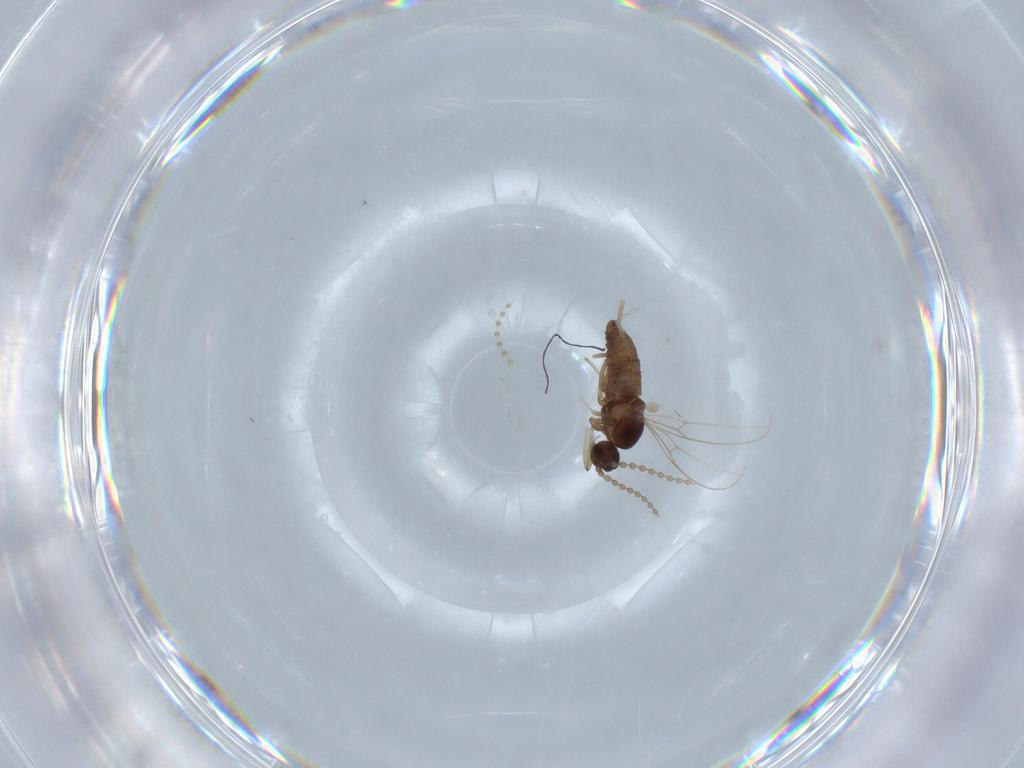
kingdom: Animalia
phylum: Arthropoda
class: Insecta
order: Diptera
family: Cecidomyiidae
